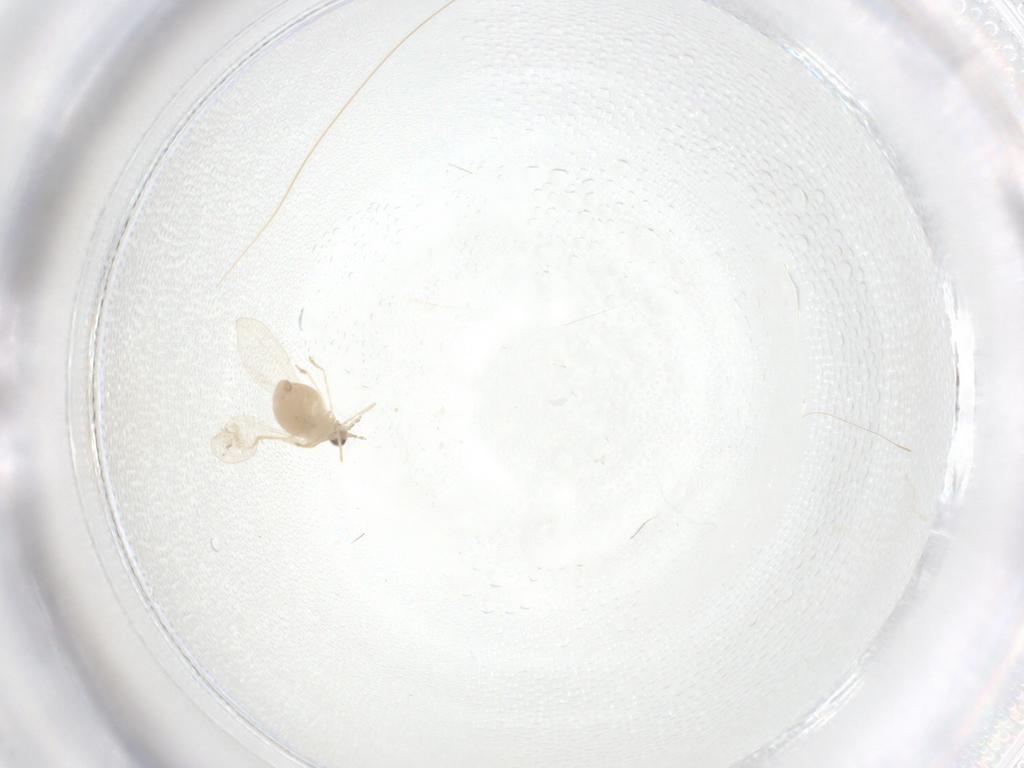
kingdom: Animalia
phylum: Arthropoda
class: Insecta
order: Diptera
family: Cecidomyiidae
